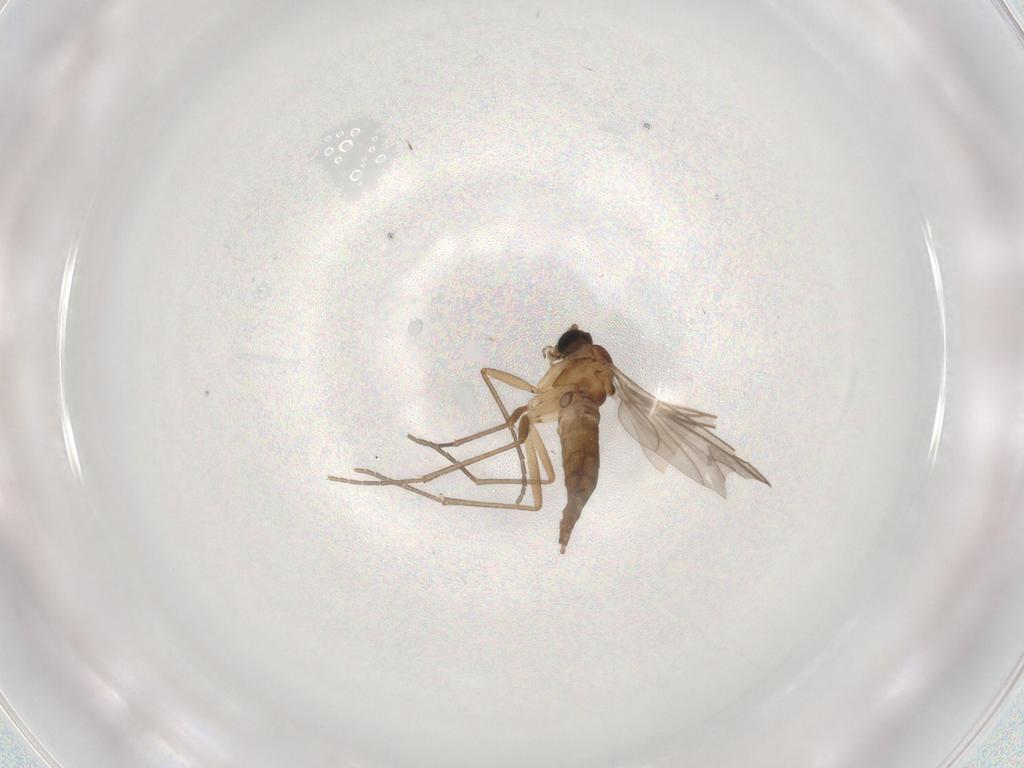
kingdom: Animalia
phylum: Arthropoda
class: Insecta
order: Diptera
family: Sciaridae
